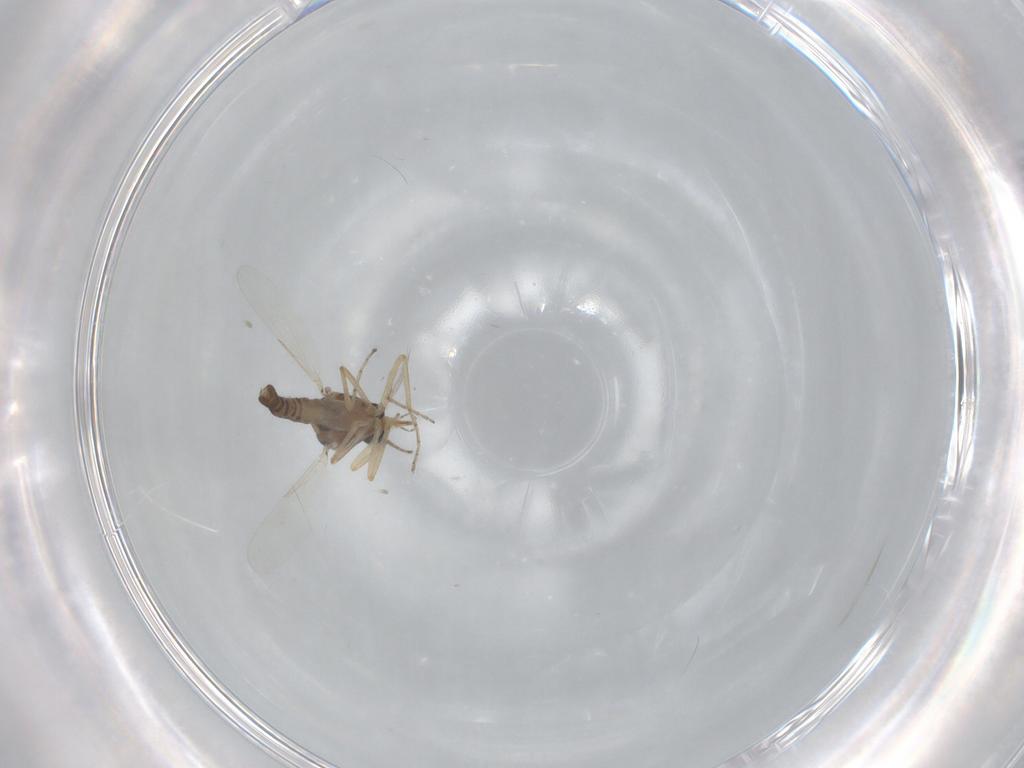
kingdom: Animalia
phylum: Arthropoda
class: Insecta
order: Diptera
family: Ceratopogonidae
